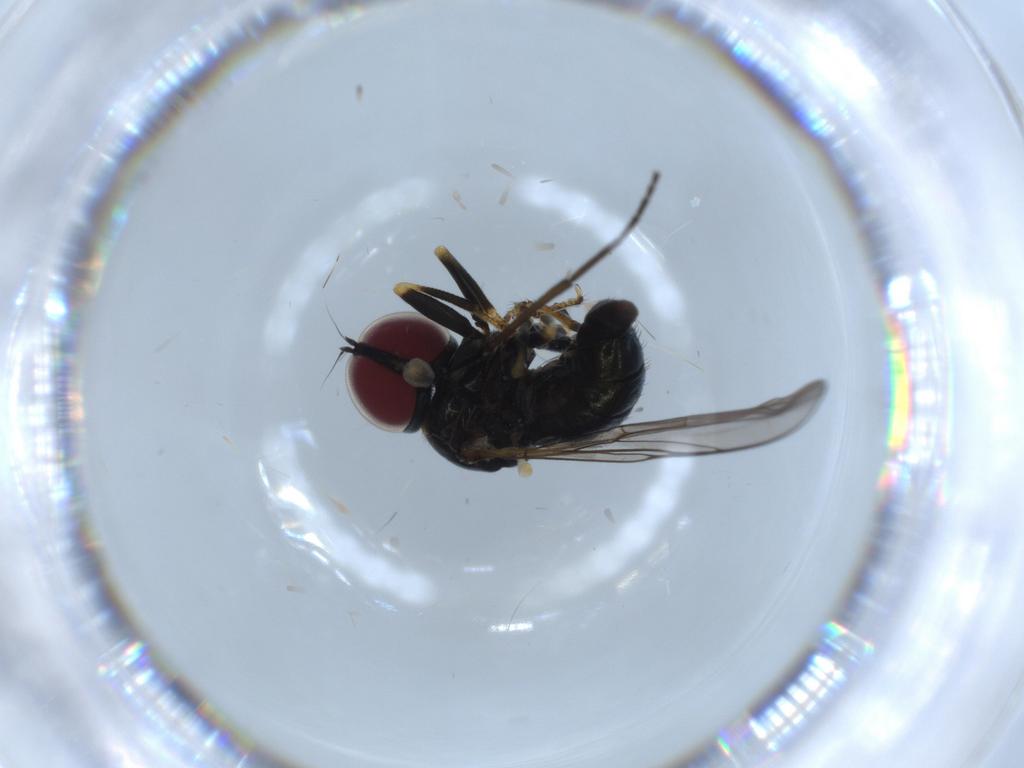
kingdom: Animalia
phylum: Arthropoda
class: Insecta
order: Diptera
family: Pipunculidae
